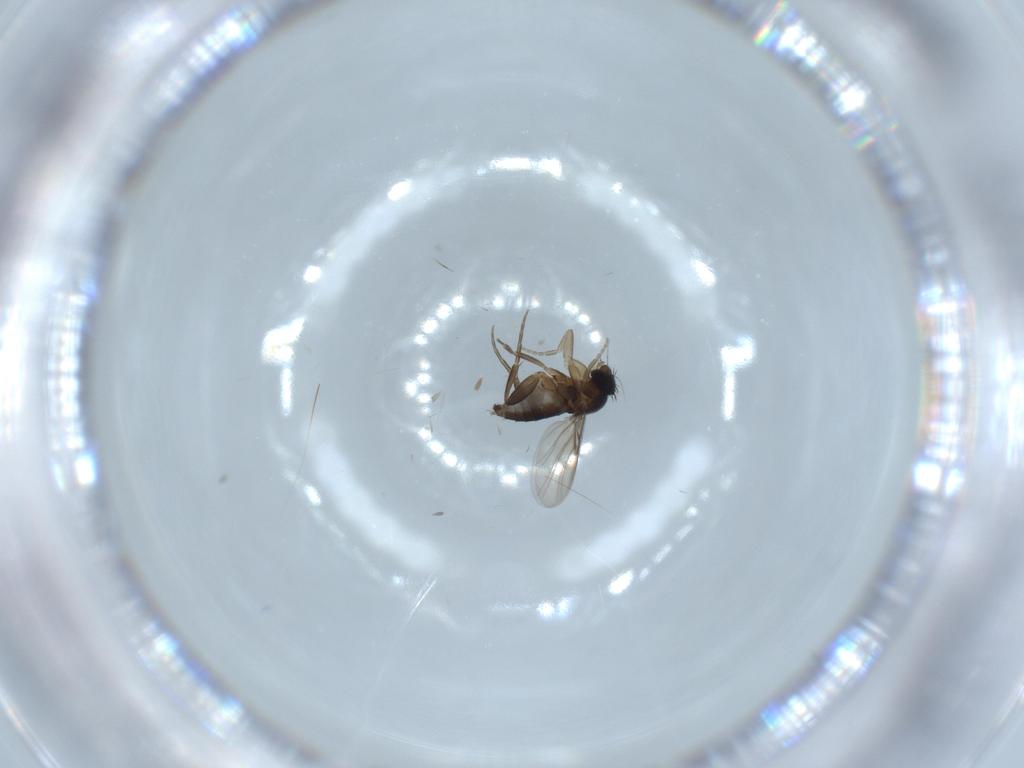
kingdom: Animalia
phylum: Arthropoda
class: Insecta
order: Diptera
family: Phoridae
